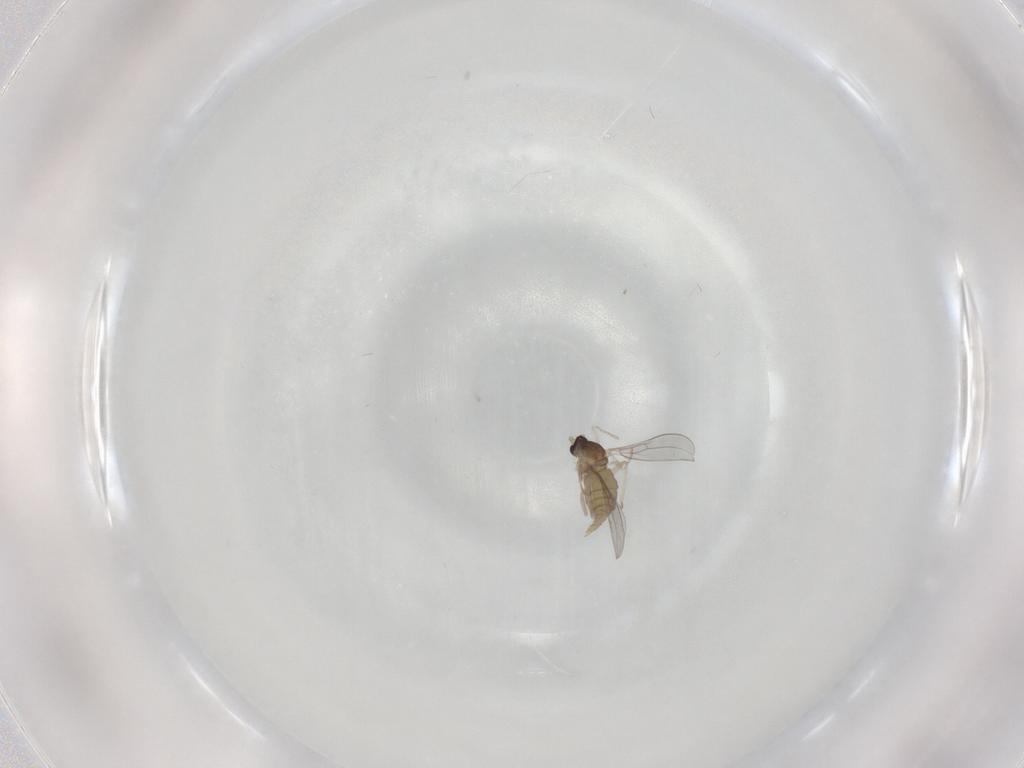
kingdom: Animalia
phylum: Arthropoda
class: Insecta
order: Diptera
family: Cecidomyiidae
